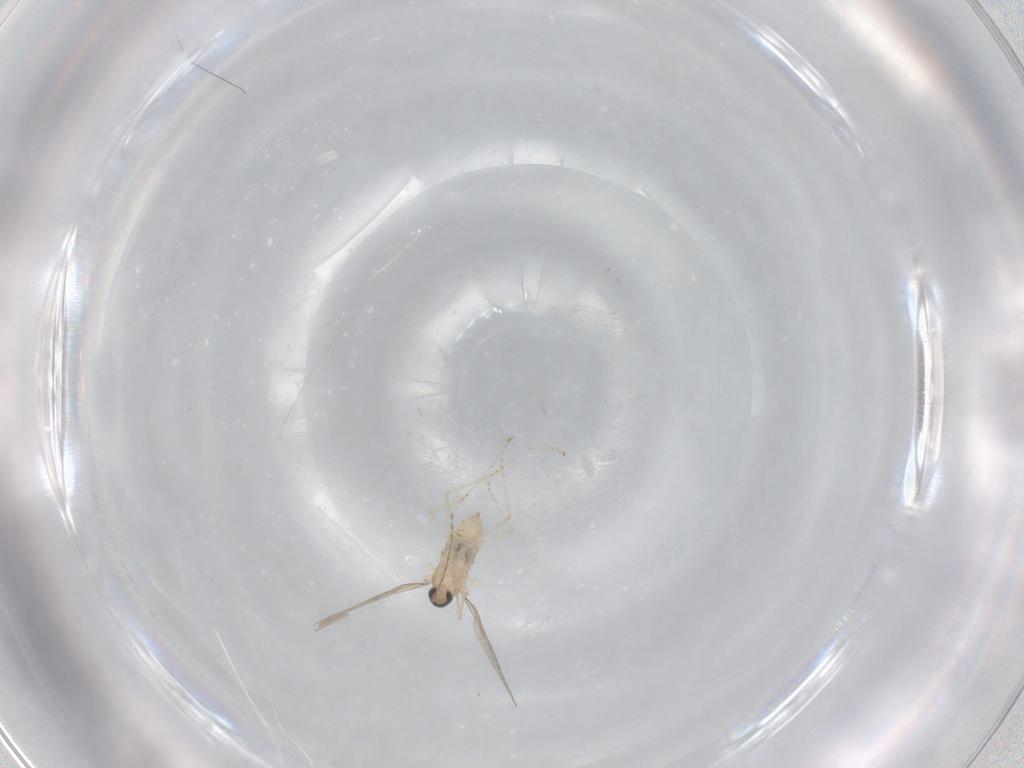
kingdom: Animalia
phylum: Arthropoda
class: Insecta
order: Diptera
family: Cecidomyiidae
